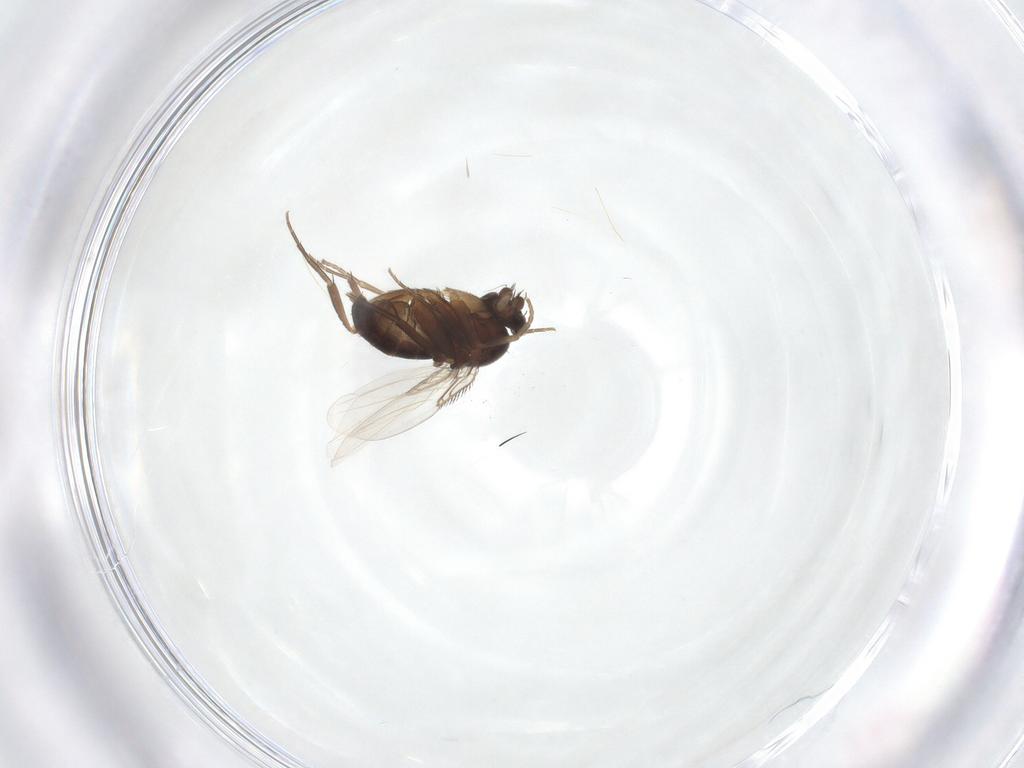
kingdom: Animalia
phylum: Arthropoda
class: Insecta
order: Diptera
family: Phoridae
